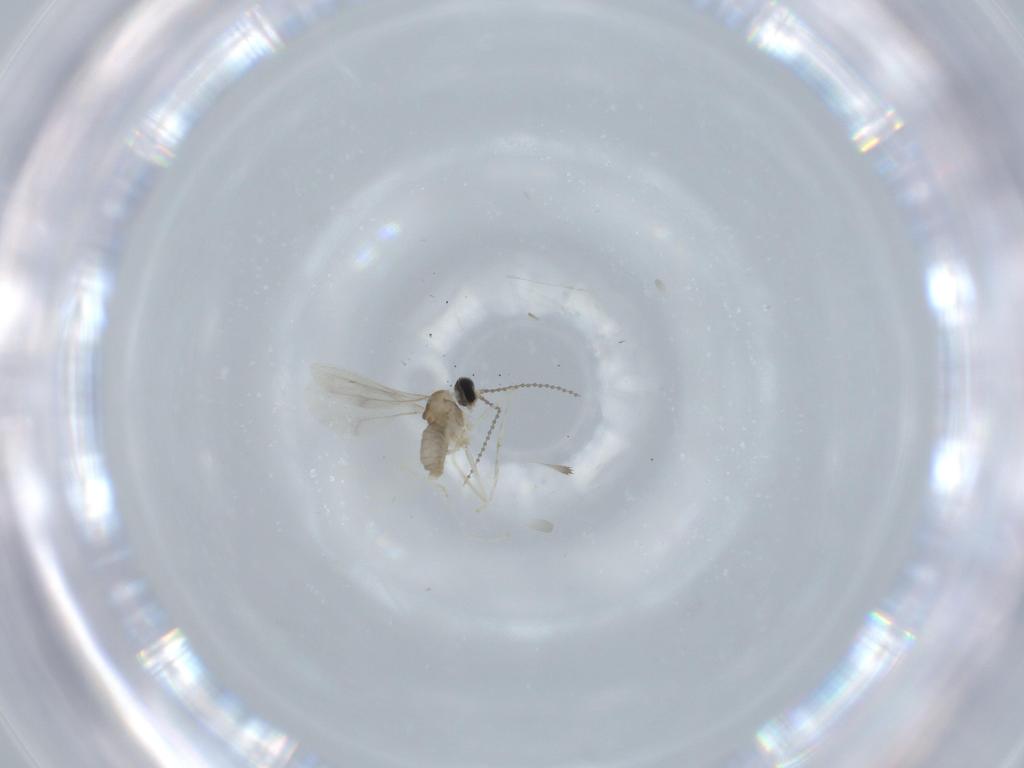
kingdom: Animalia
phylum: Arthropoda
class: Insecta
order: Diptera
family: Cecidomyiidae
